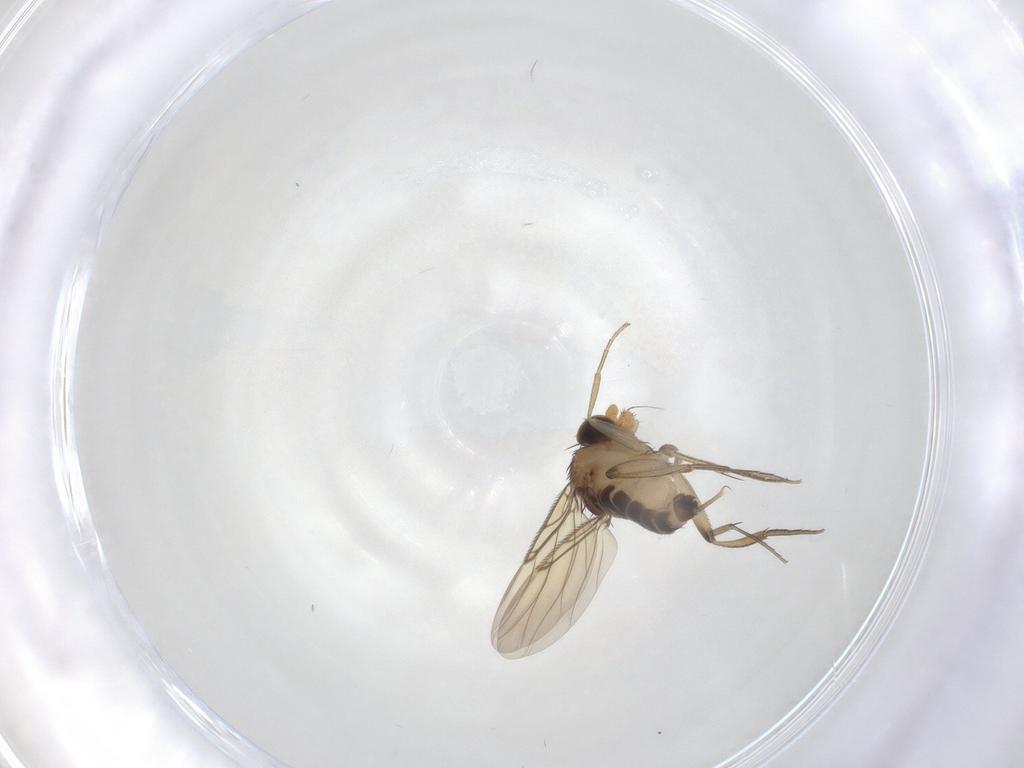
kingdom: Animalia
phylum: Arthropoda
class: Insecta
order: Diptera
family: Phoridae
